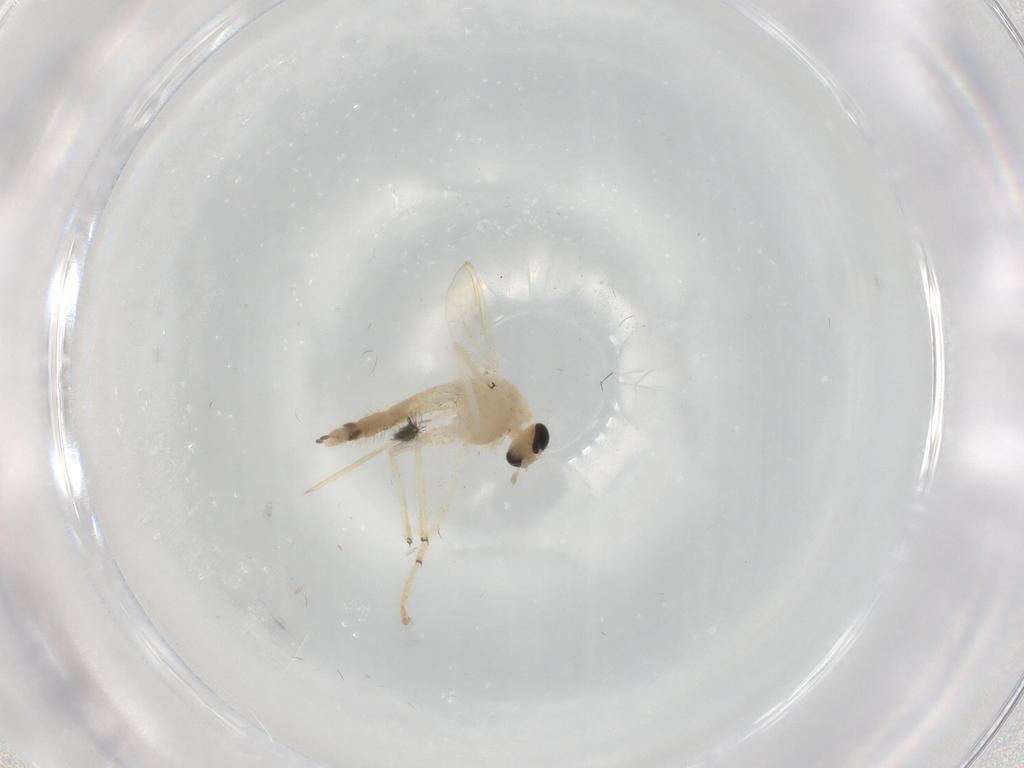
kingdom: Animalia
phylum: Arthropoda
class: Insecta
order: Diptera
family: Chironomidae
